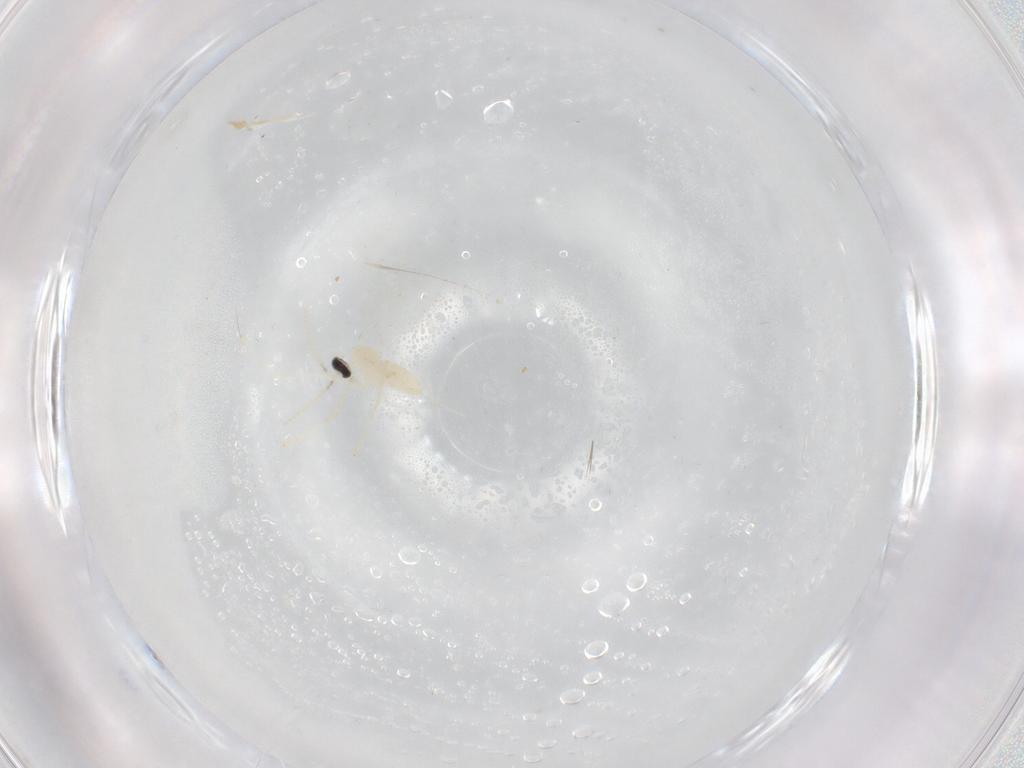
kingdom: Animalia
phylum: Arthropoda
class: Insecta
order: Diptera
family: Cecidomyiidae
